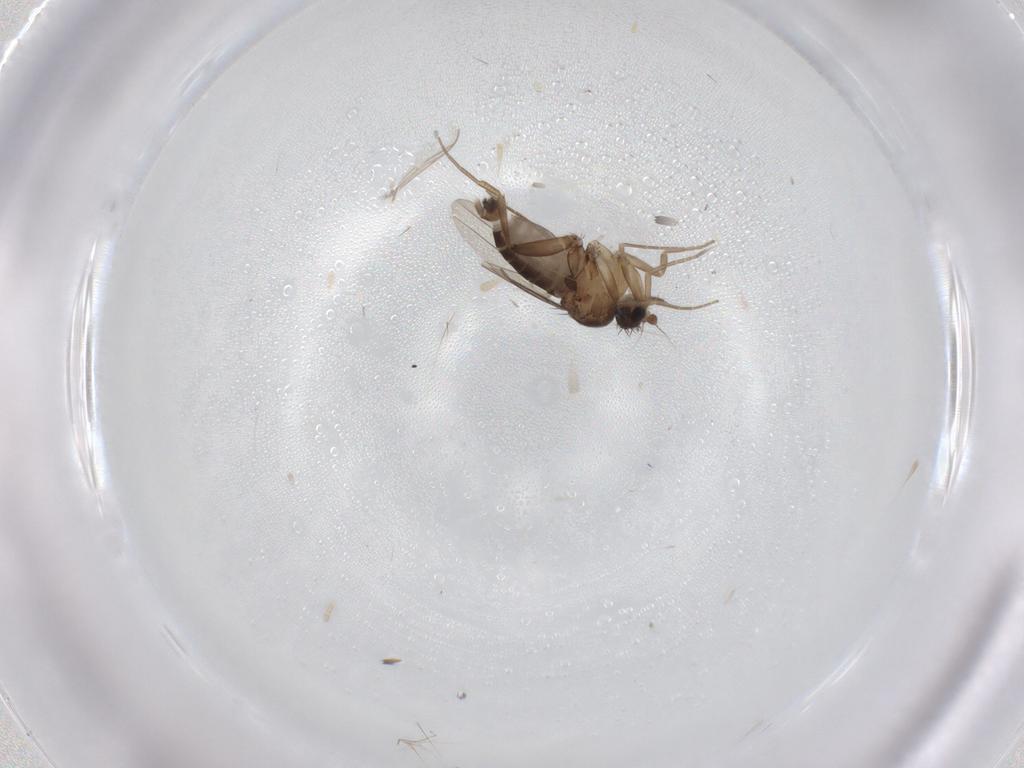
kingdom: Animalia
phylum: Arthropoda
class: Insecta
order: Diptera
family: Phoridae
